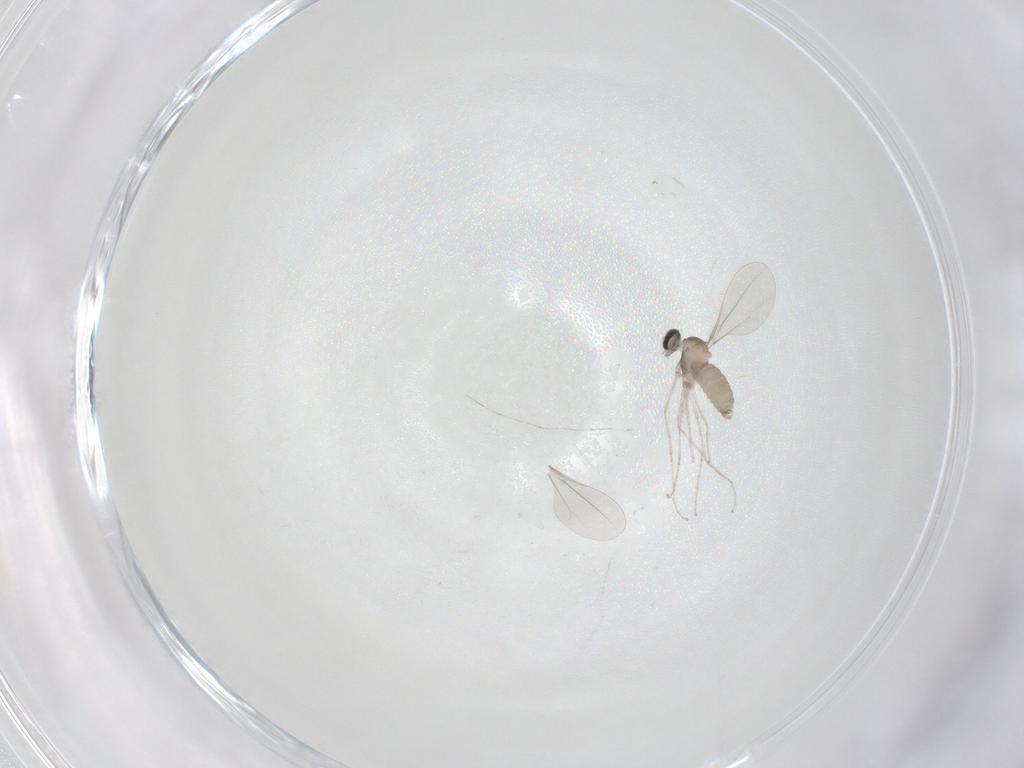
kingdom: Animalia
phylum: Arthropoda
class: Insecta
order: Diptera
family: Cecidomyiidae
